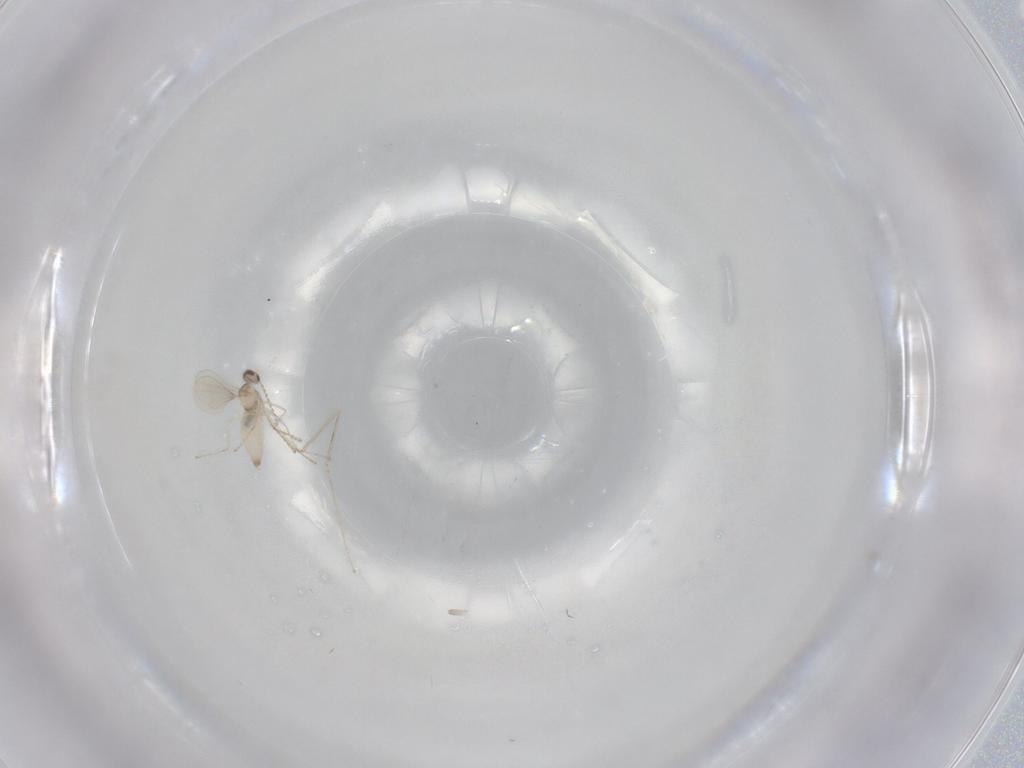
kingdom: Animalia
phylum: Arthropoda
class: Insecta
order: Diptera
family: Cecidomyiidae
